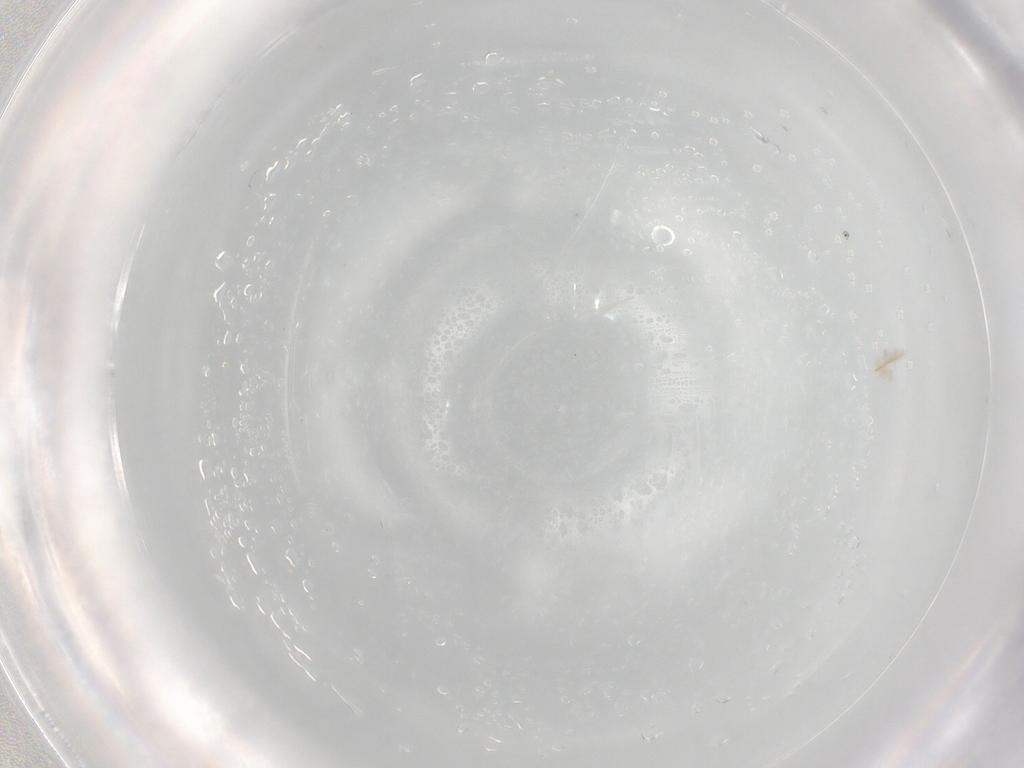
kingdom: Animalia
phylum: Arthropoda
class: Insecta
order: Hymenoptera
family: Aphelinidae
